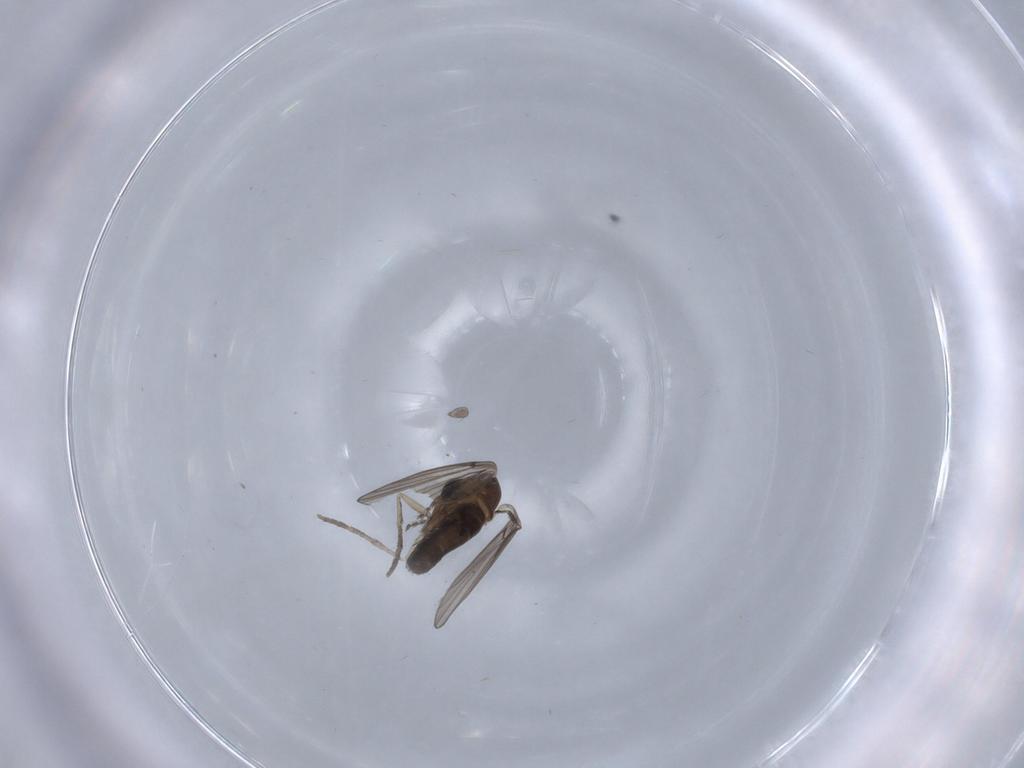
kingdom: Animalia
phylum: Arthropoda
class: Insecta
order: Diptera
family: Psychodidae
